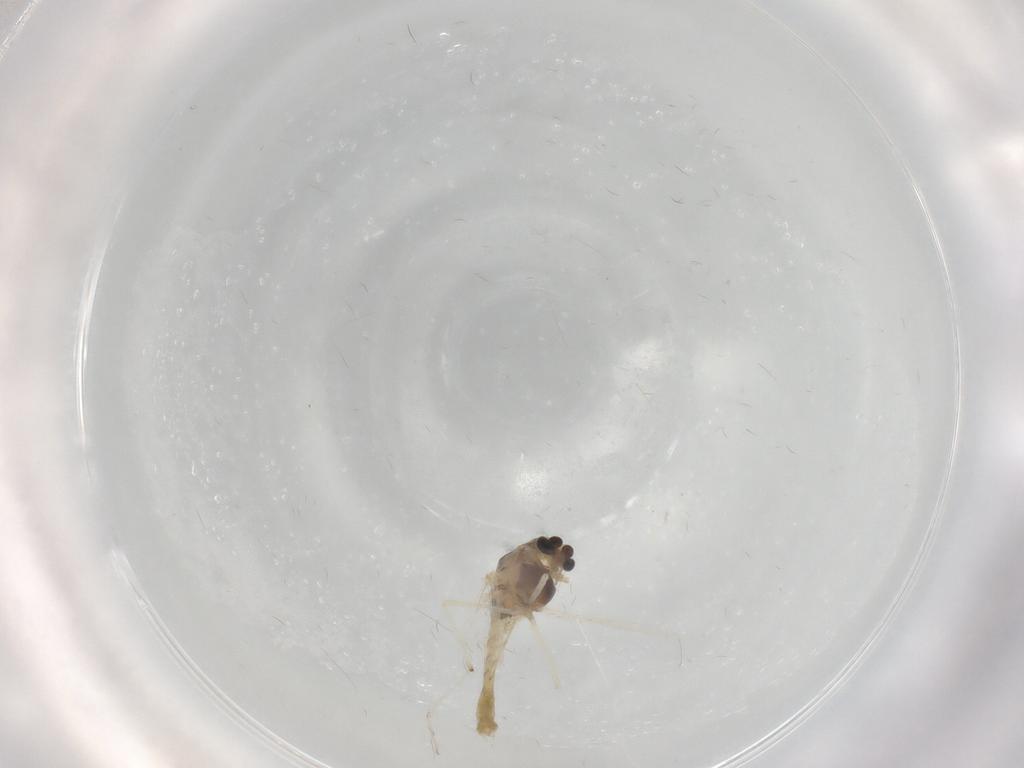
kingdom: Animalia
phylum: Arthropoda
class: Insecta
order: Diptera
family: Chironomidae
